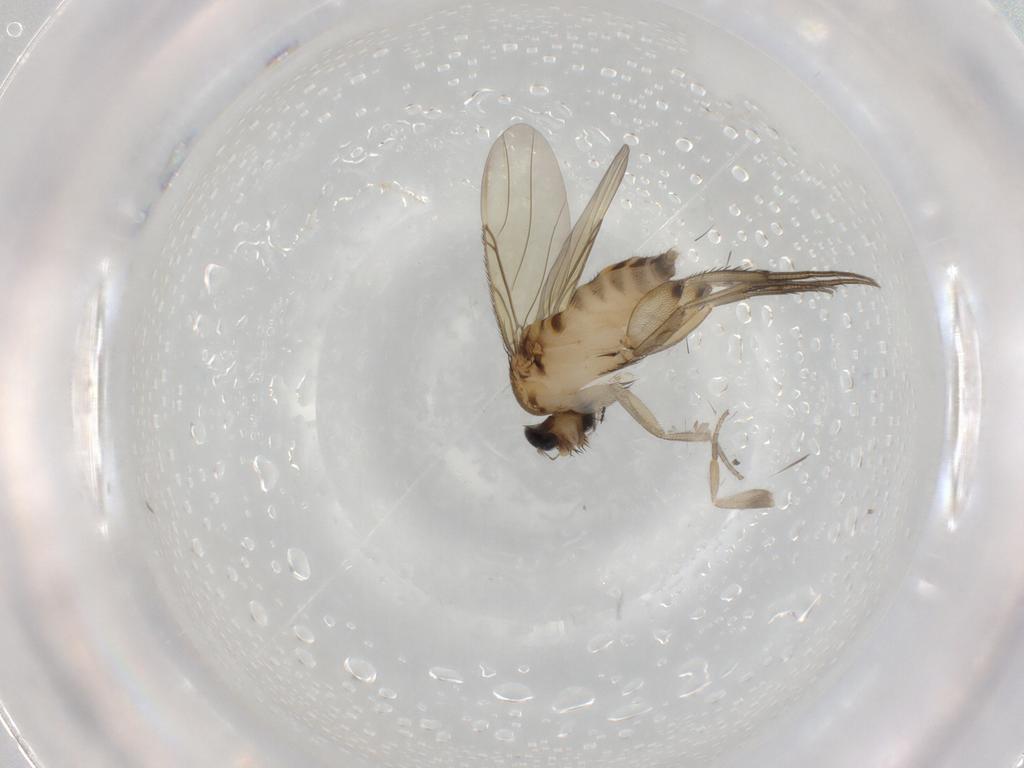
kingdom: Animalia
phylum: Arthropoda
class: Insecta
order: Diptera
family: Phoridae
